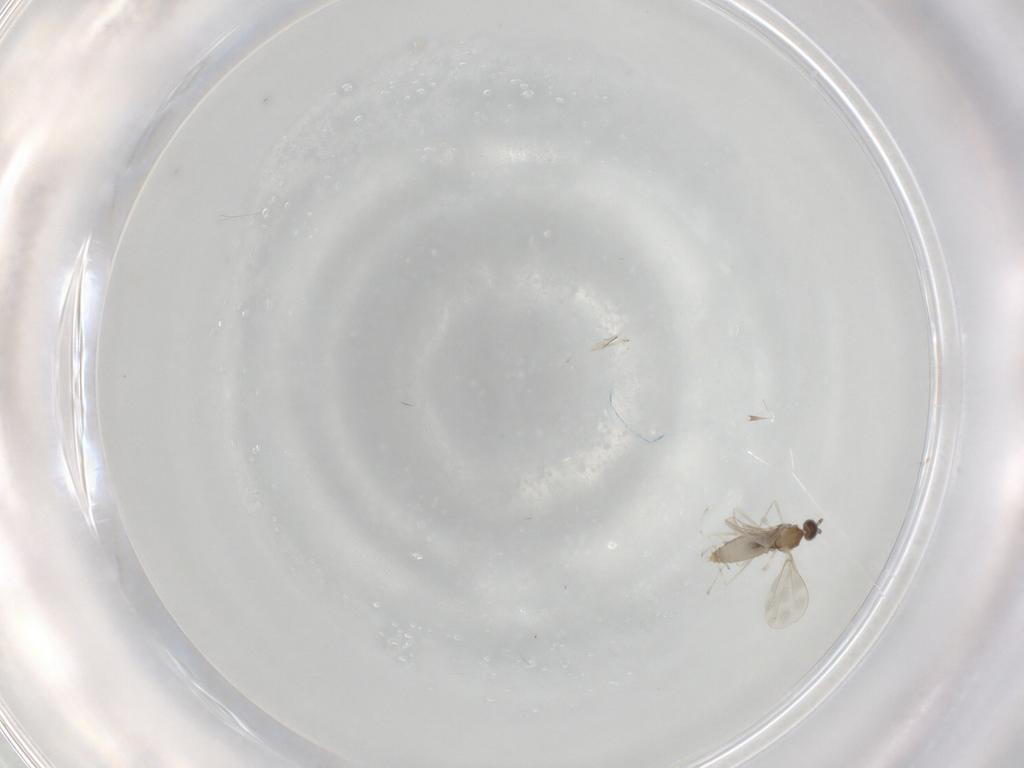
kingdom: Animalia
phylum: Arthropoda
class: Insecta
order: Diptera
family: Cecidomyiidae
